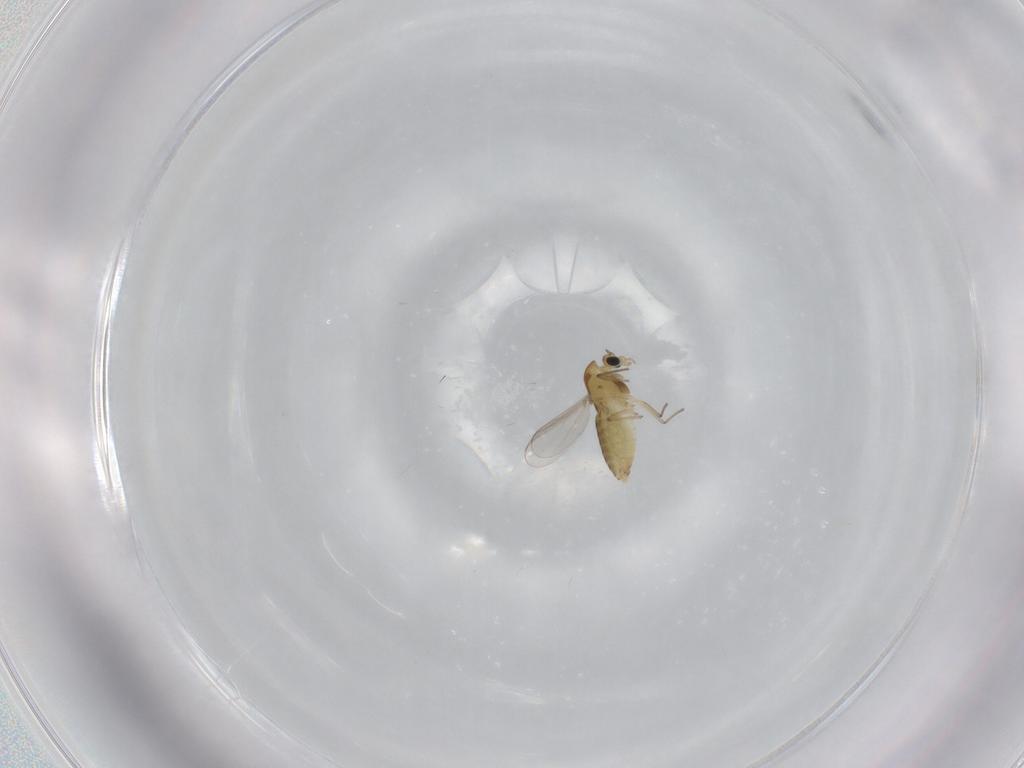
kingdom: Animalia
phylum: Arthropoda
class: Insecta
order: Diptera
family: Chironomidae
